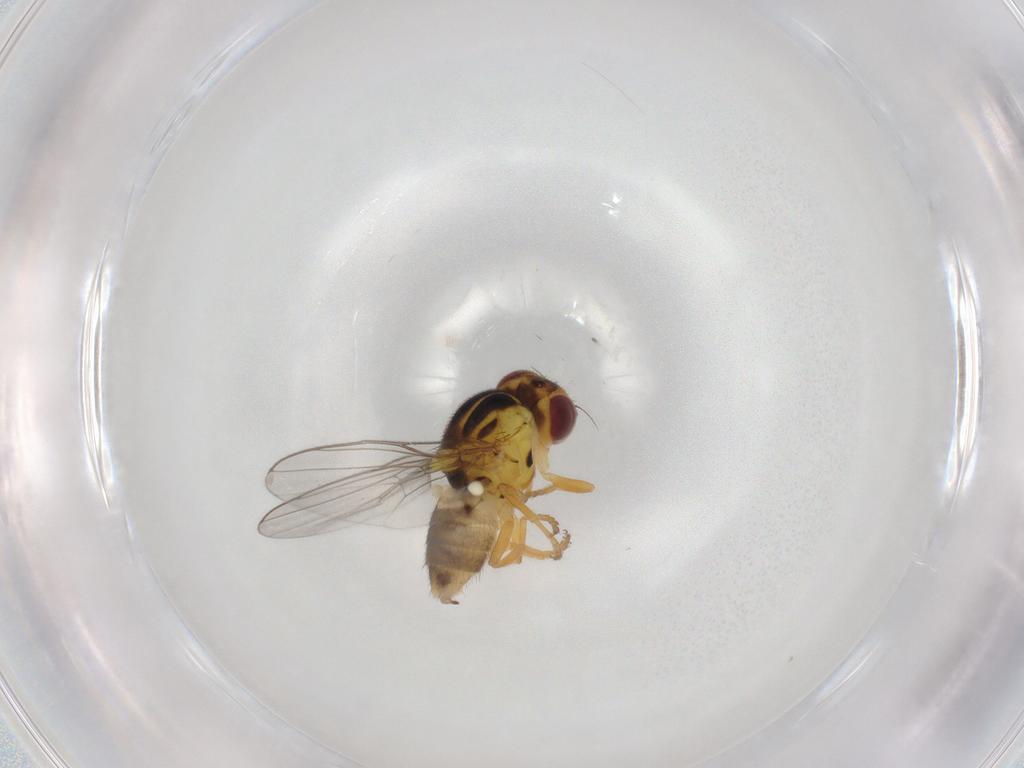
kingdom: Animalia
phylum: Arthropoda
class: Insecta
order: Diptera
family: Chloropidae
